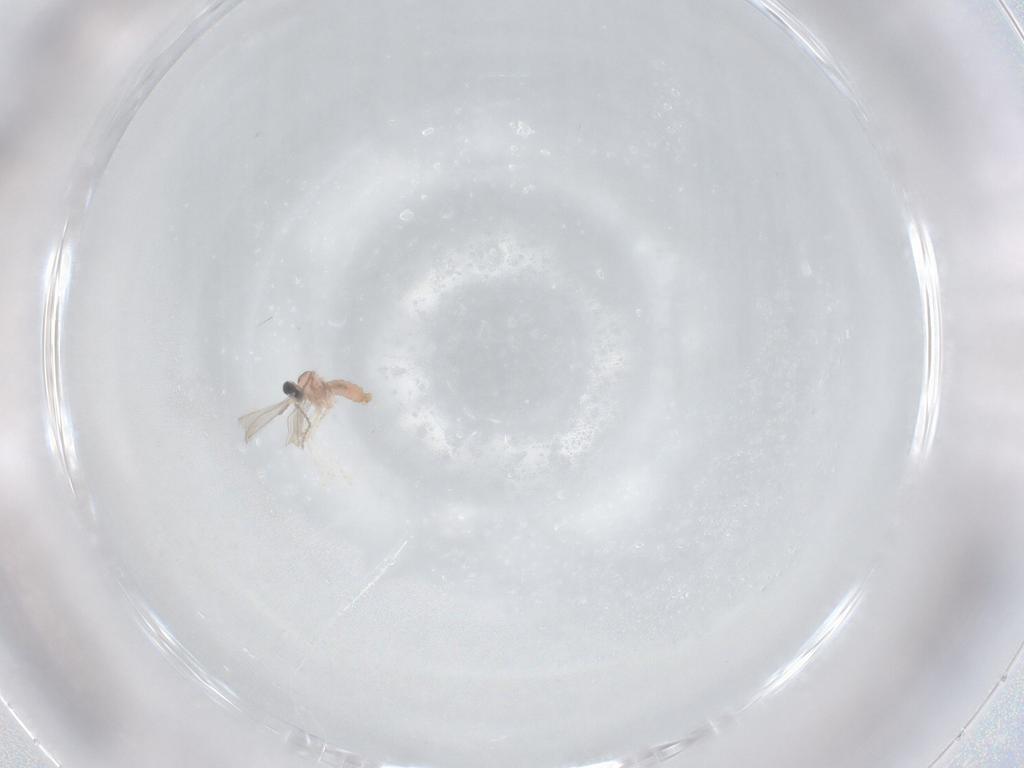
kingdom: Animalia
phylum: Arthropoda
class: Insecta
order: Diptera
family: Cecidomyiidae
